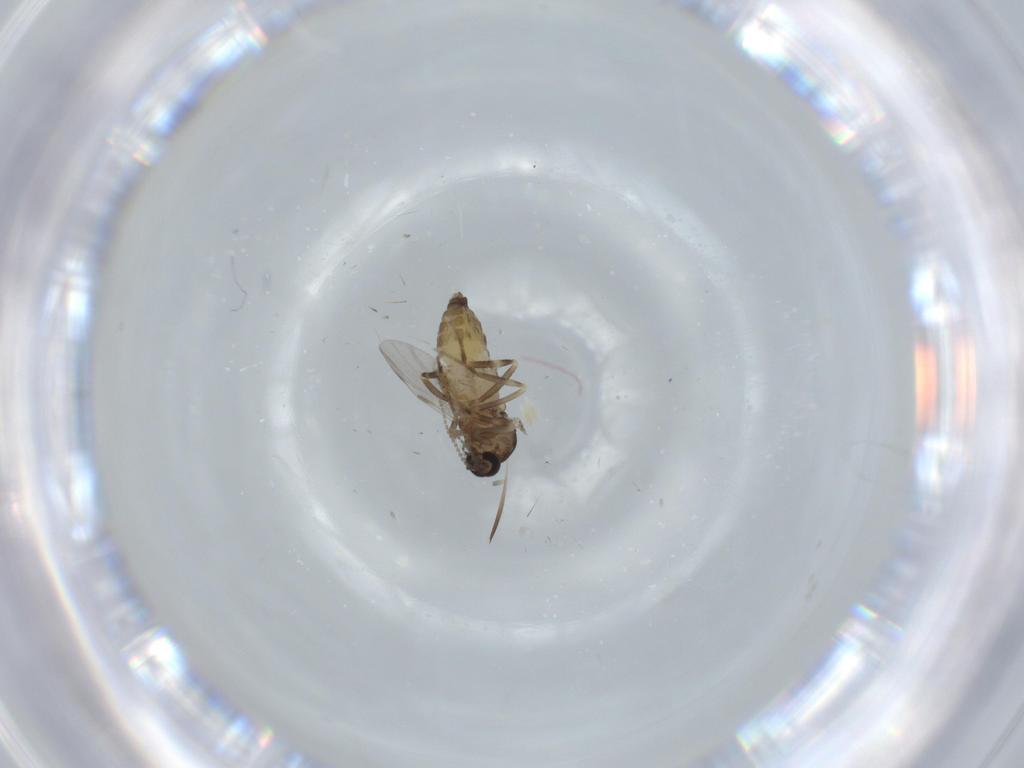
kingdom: Animalia
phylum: Arthropoda
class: Insecta
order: Diptera
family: Ceratopogonidae
